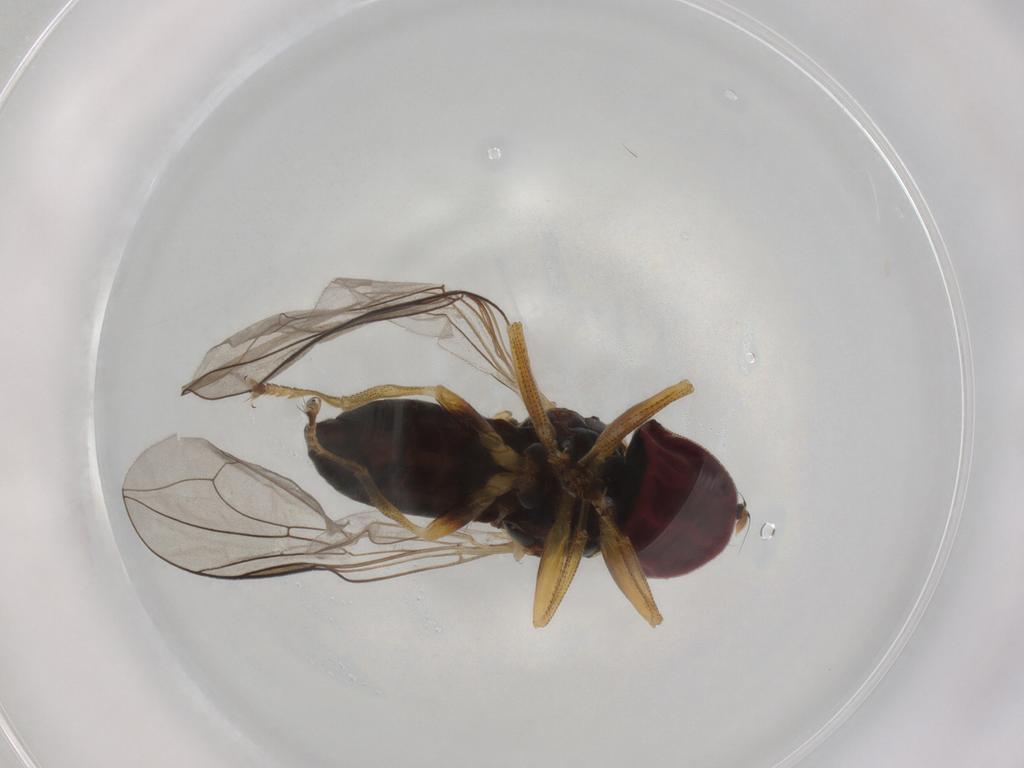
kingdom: Animalia
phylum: Arthropoda
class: Insecta
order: Diptera
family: Pipunculidae
